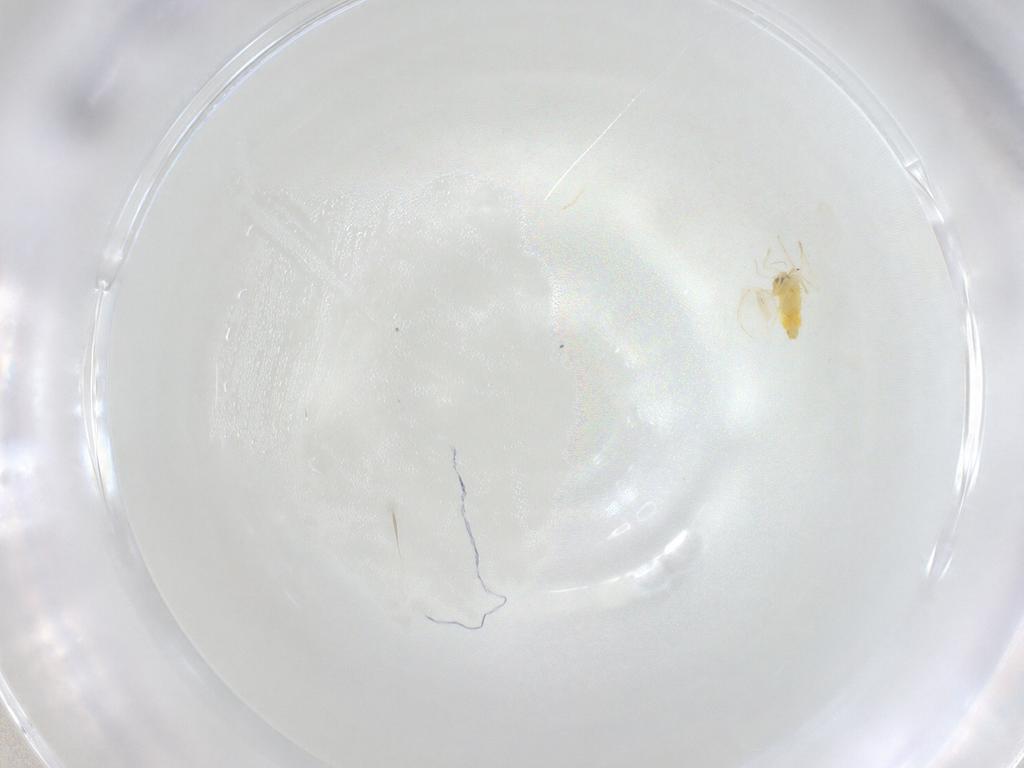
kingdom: Animalia
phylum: Arthropoda
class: Insecta
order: Hemiptera
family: Aleyrodidae
